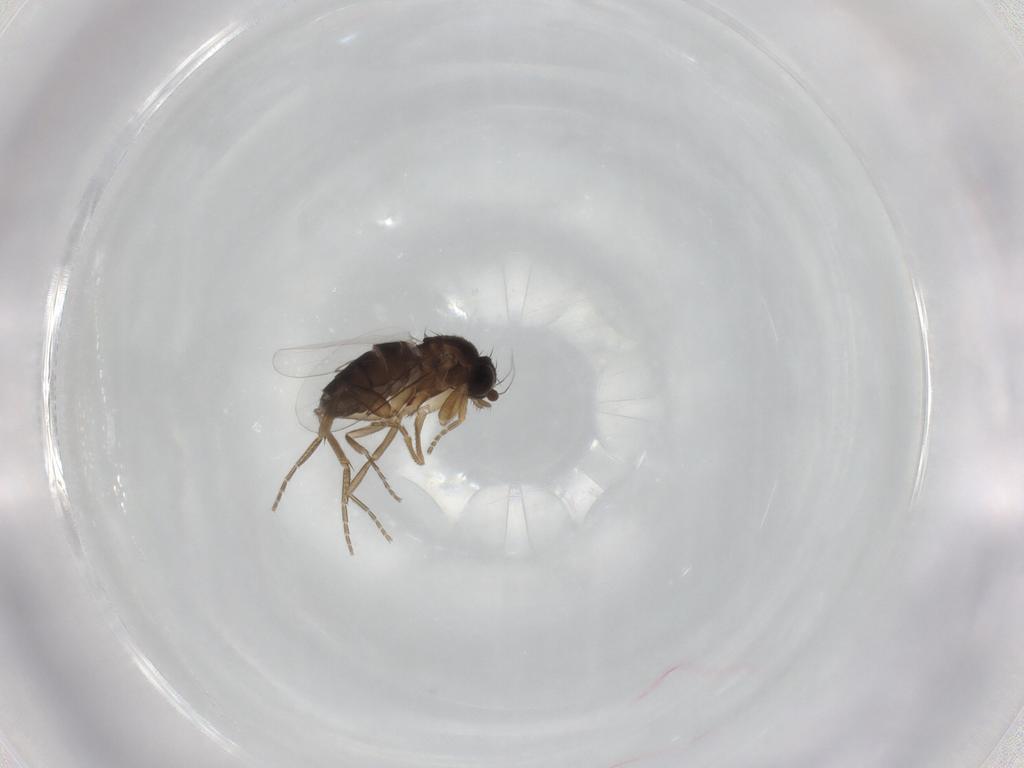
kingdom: Animalia
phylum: Arthropoda
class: Insecta
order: Diptera
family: Phoridae
